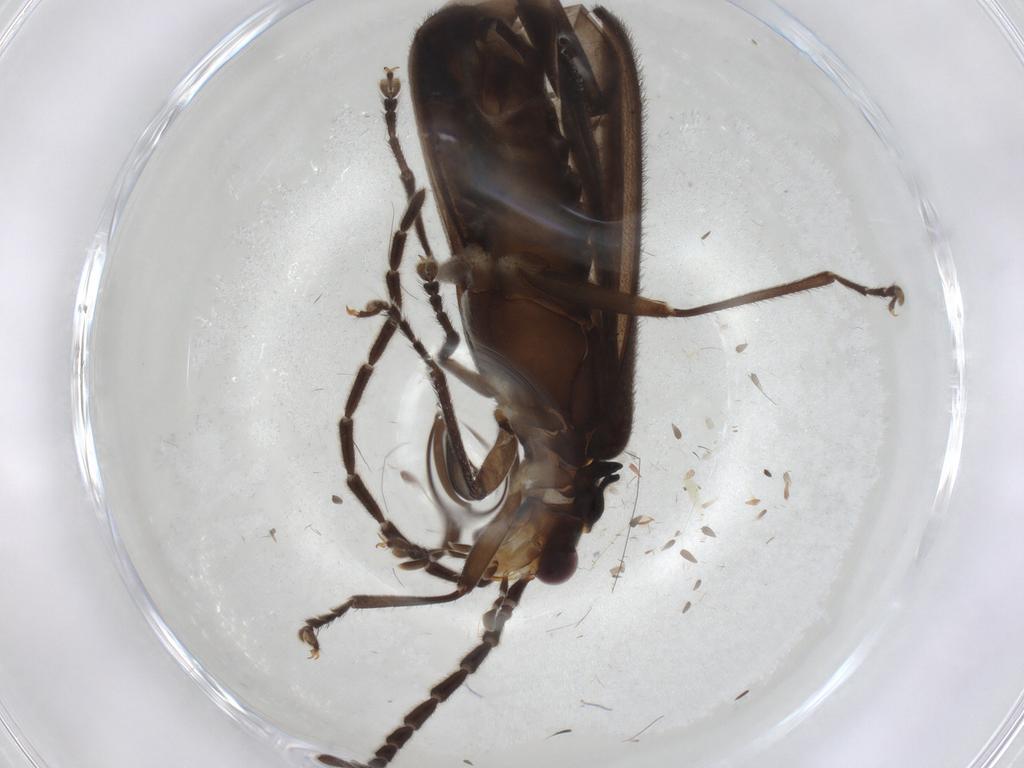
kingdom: Animalia
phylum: Arthropoda
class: Insecta
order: Coleoptera
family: Cantharidae
